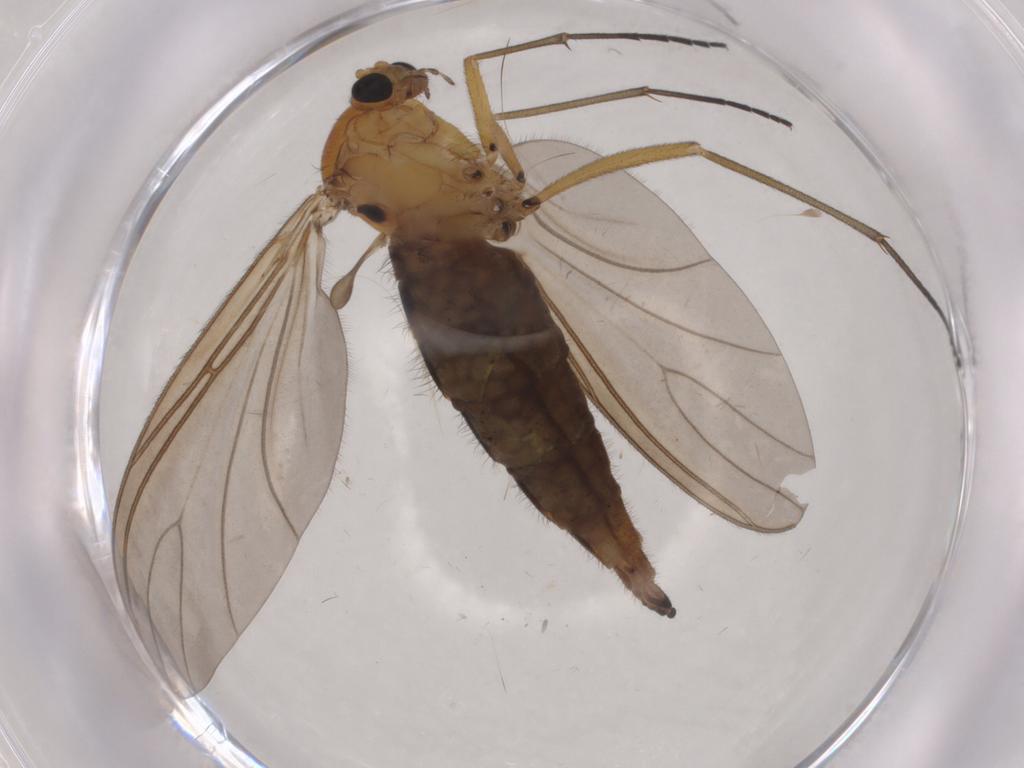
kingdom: Animalia
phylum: Arthropoda
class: Insecta
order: Diptera
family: Sciaridae
